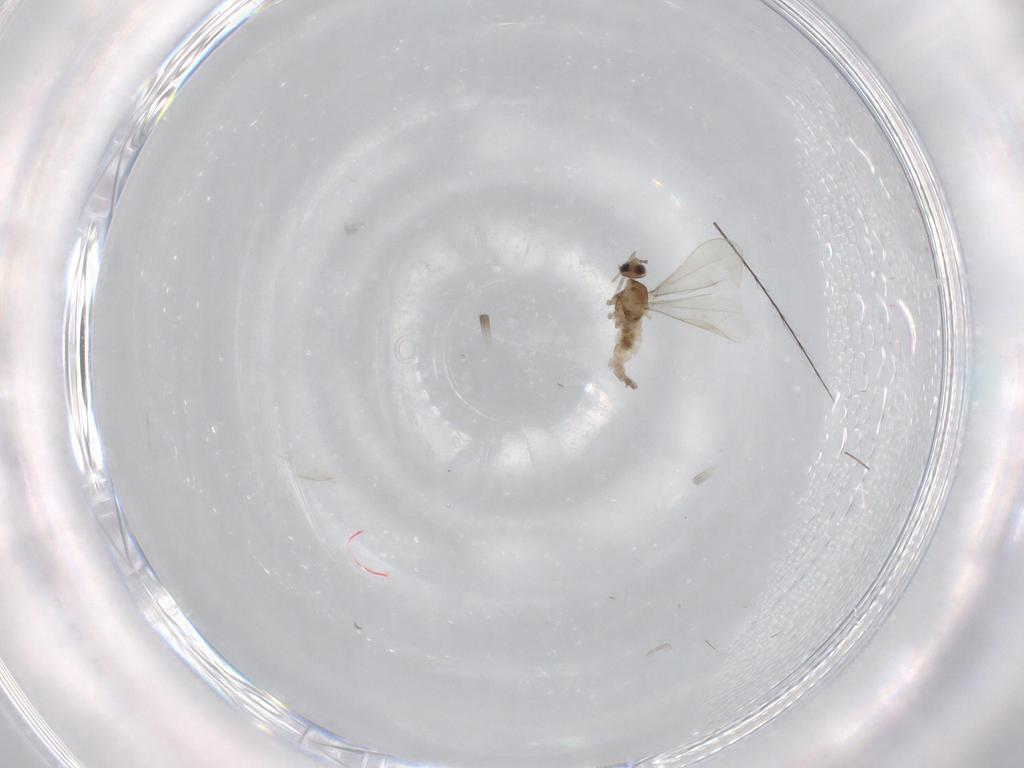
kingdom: Animalia
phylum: Arthropoda
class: Insecta
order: Diptera
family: Cecidomyiidae
